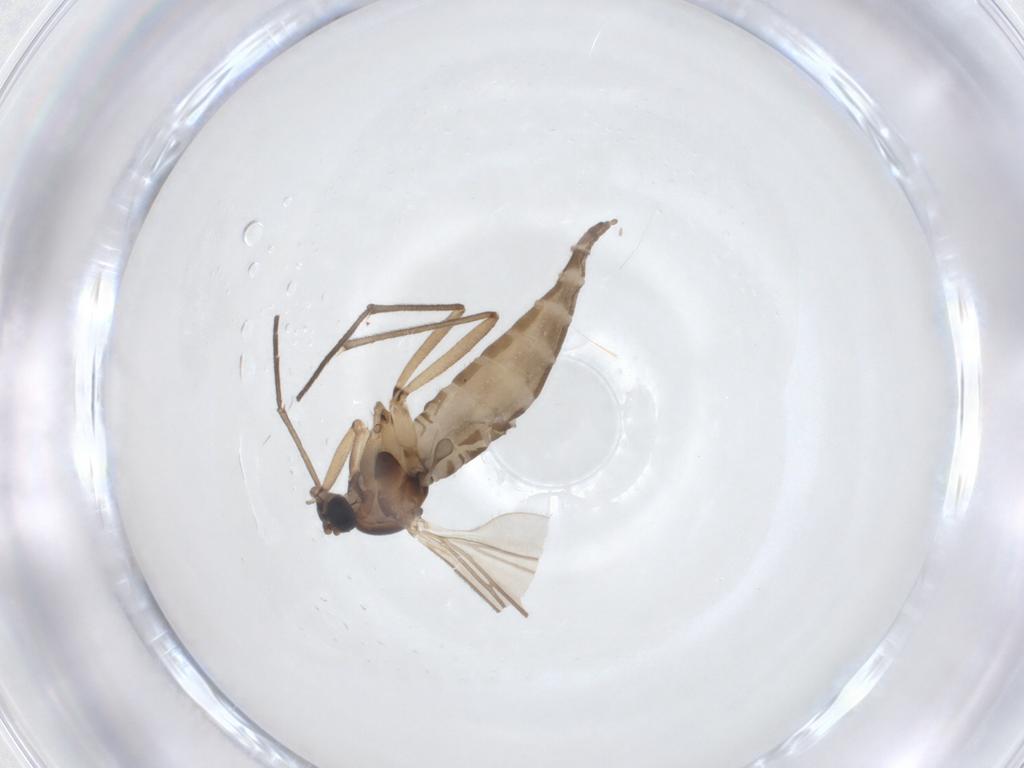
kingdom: Animalia
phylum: Arthropoda
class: Insecta
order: Diptera
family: Sciaridae
